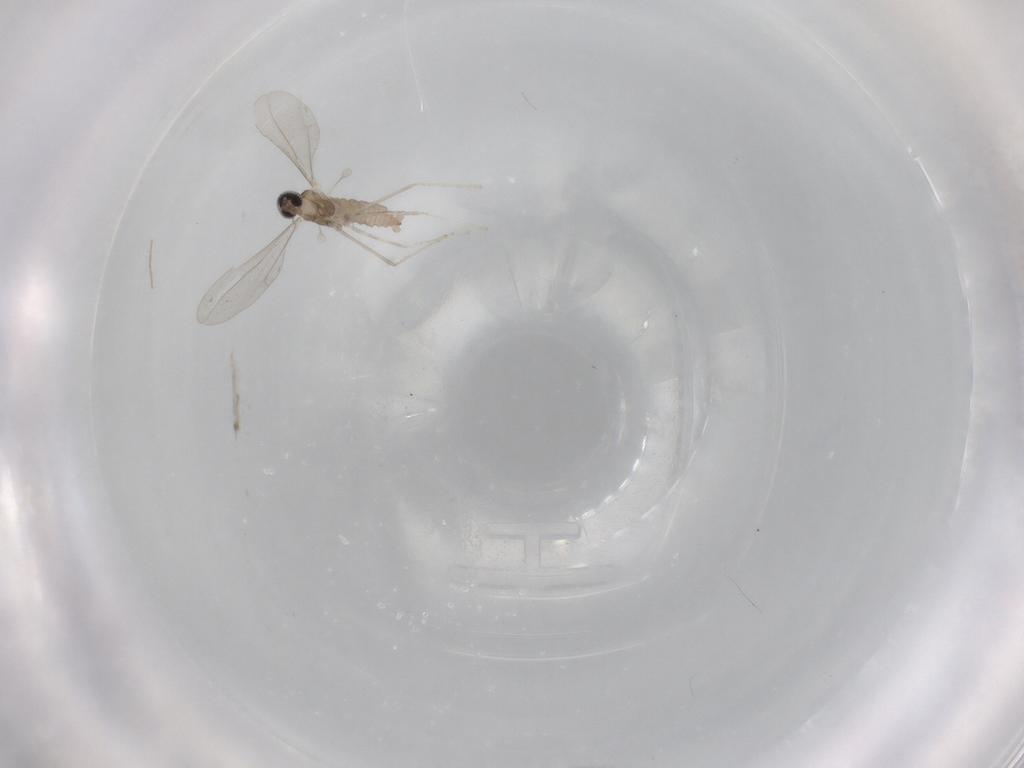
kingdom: Animalia
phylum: Arthropoda
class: Insecta
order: Diptera
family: Cecidomyiidae
